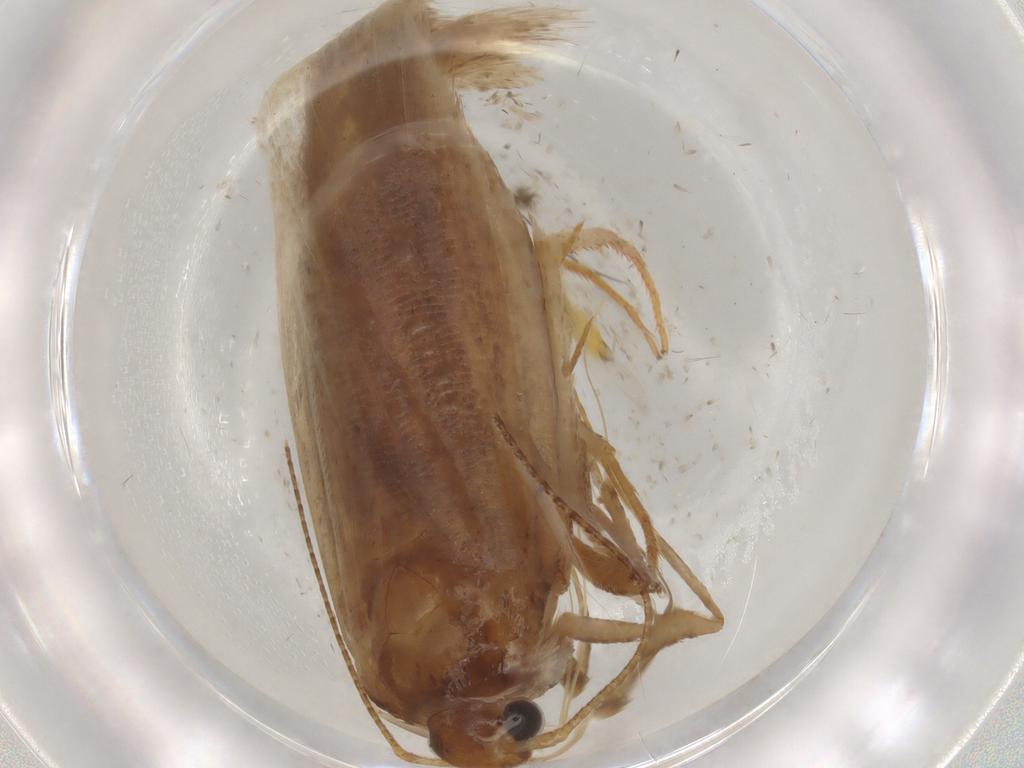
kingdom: Animalia
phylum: Arthropoda
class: Insecta
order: Lepidoptera
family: Erebidae
